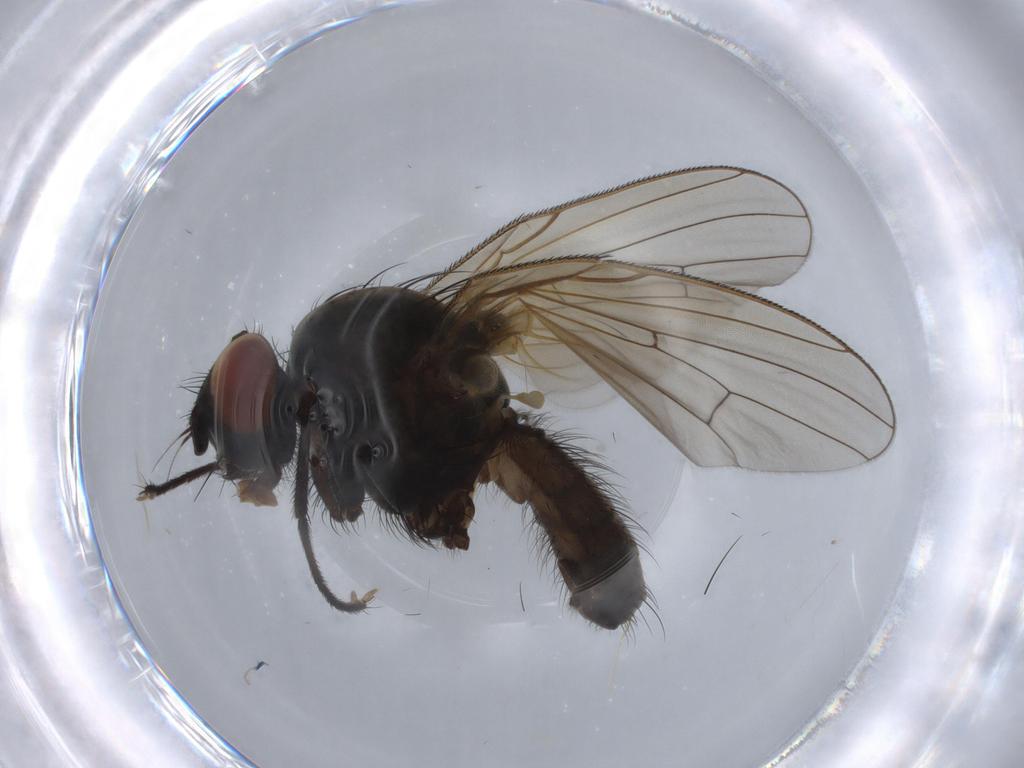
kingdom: Animalia
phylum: Arthropoda
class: Insecta
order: Diptera
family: Anthomyiidae
